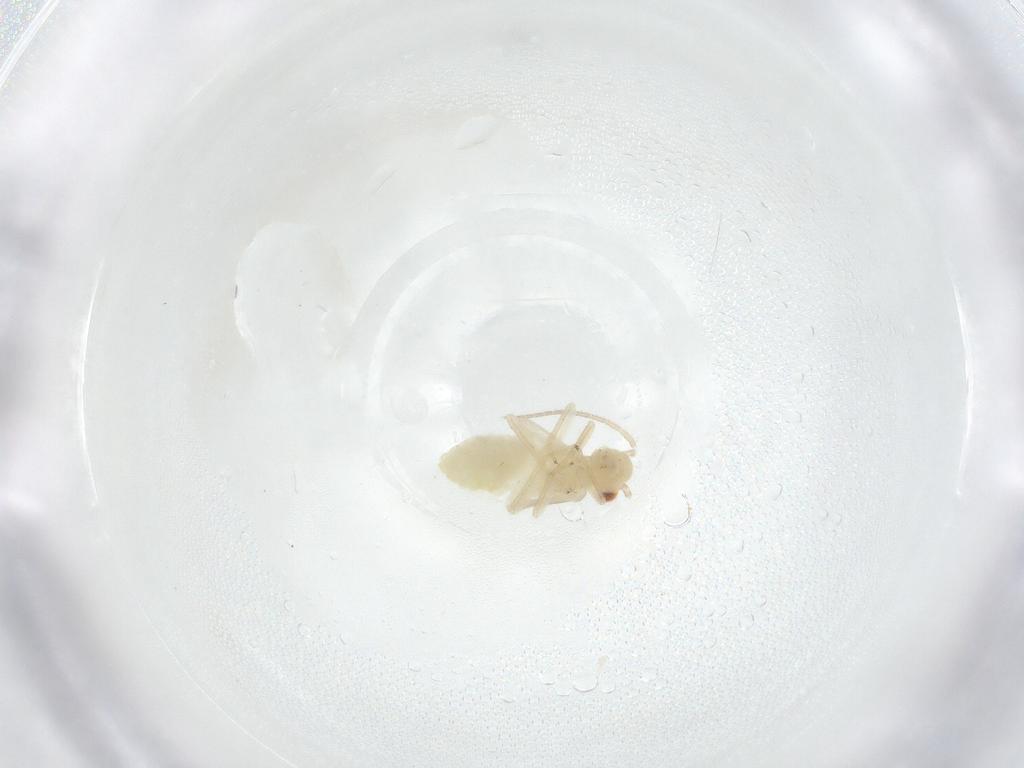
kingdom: Animalia
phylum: Arthropoda
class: Insecta
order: Psocodea
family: Caeciliusidae
